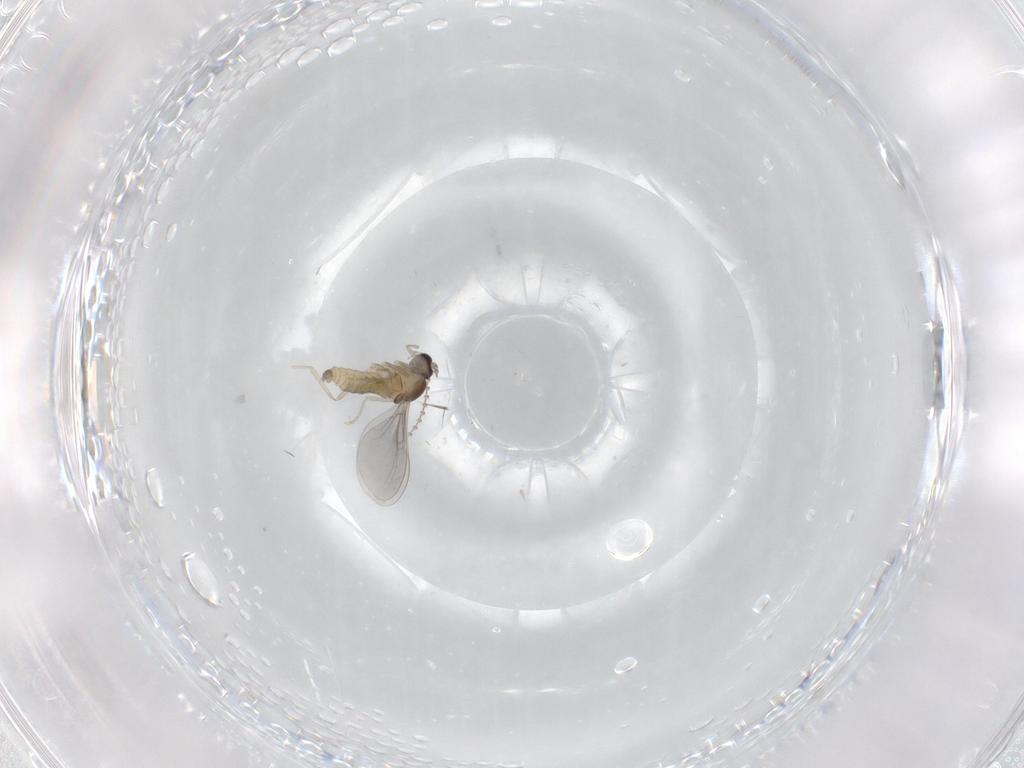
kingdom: Animalia
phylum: Arthropoda
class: Insecta
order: Diptera
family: Cecidomyiidae
